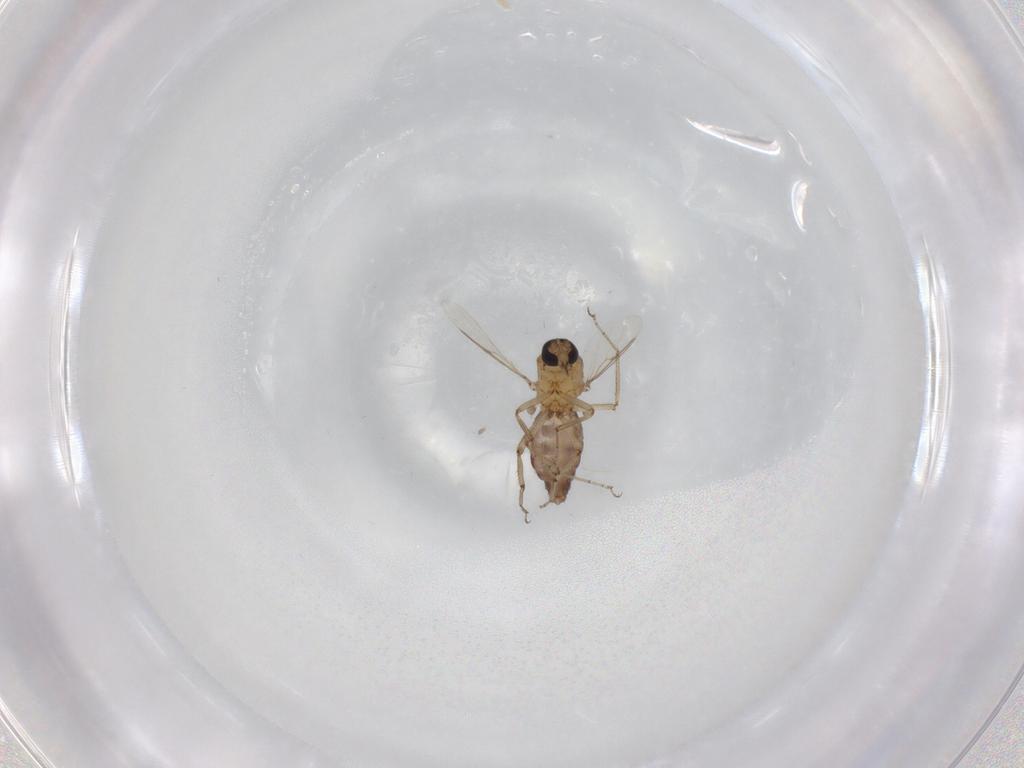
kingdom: Animalia
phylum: Arthropoda
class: Insecta
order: Diptera
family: Ceratopogonidae
